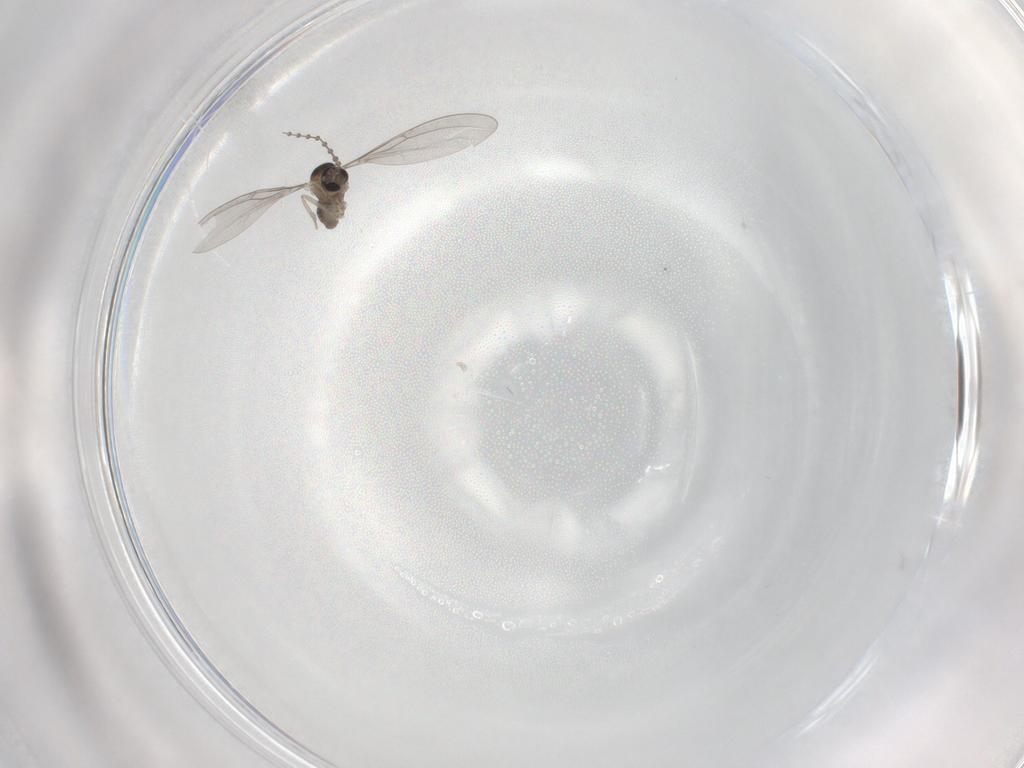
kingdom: Animalia
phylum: Arthropoda
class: Insecta
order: Diptera
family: Cecidomyiidae
